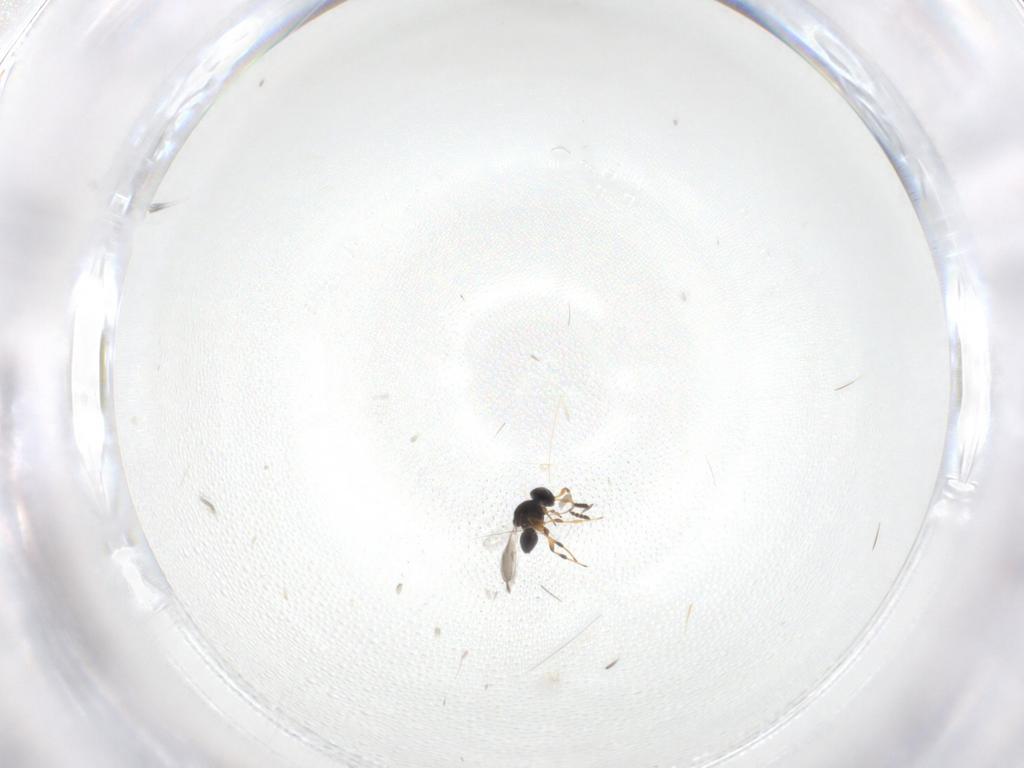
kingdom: Animalia
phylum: Arthropoda
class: Insecta
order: Hymenoptera
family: Platygastridae
